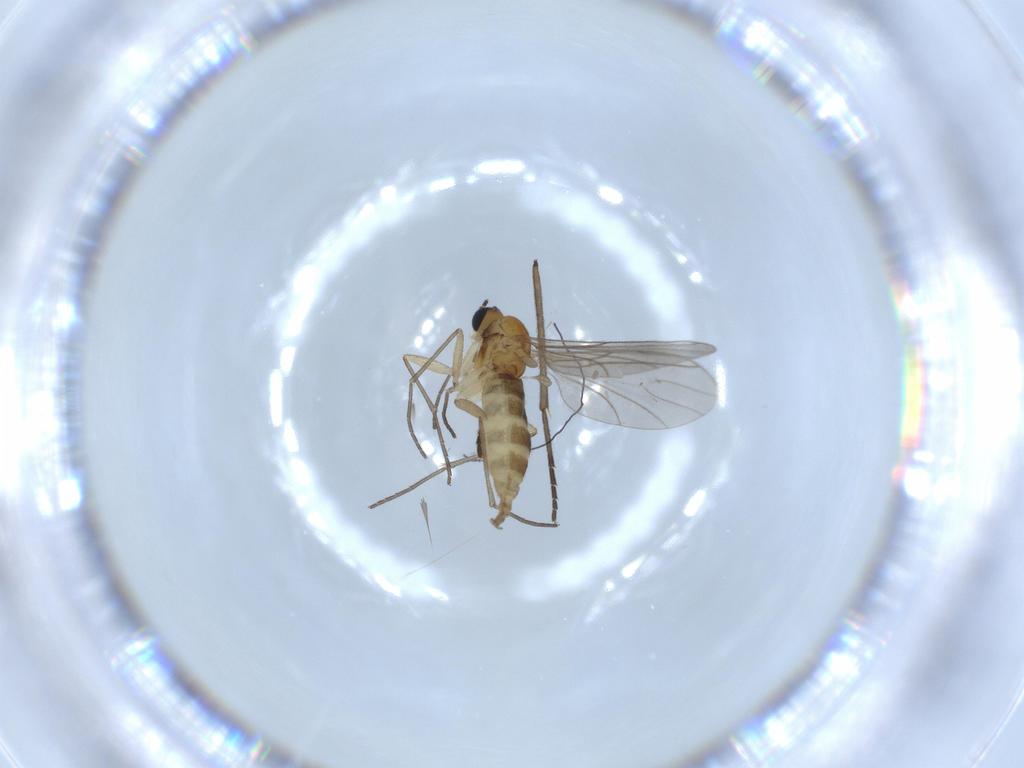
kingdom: Animalia
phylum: Arthropoda
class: Insecta
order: Diptera
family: Sciaridae
